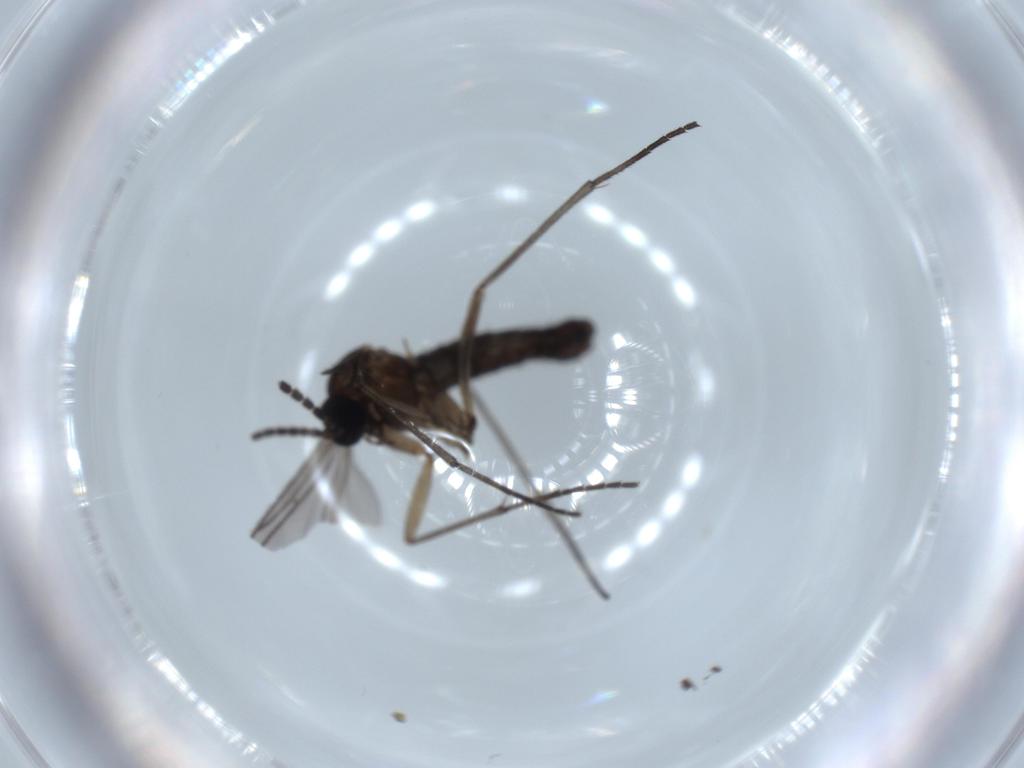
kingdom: Animalia
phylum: Arthropoda
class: Insecta
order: Diptera
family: Sciaridae
